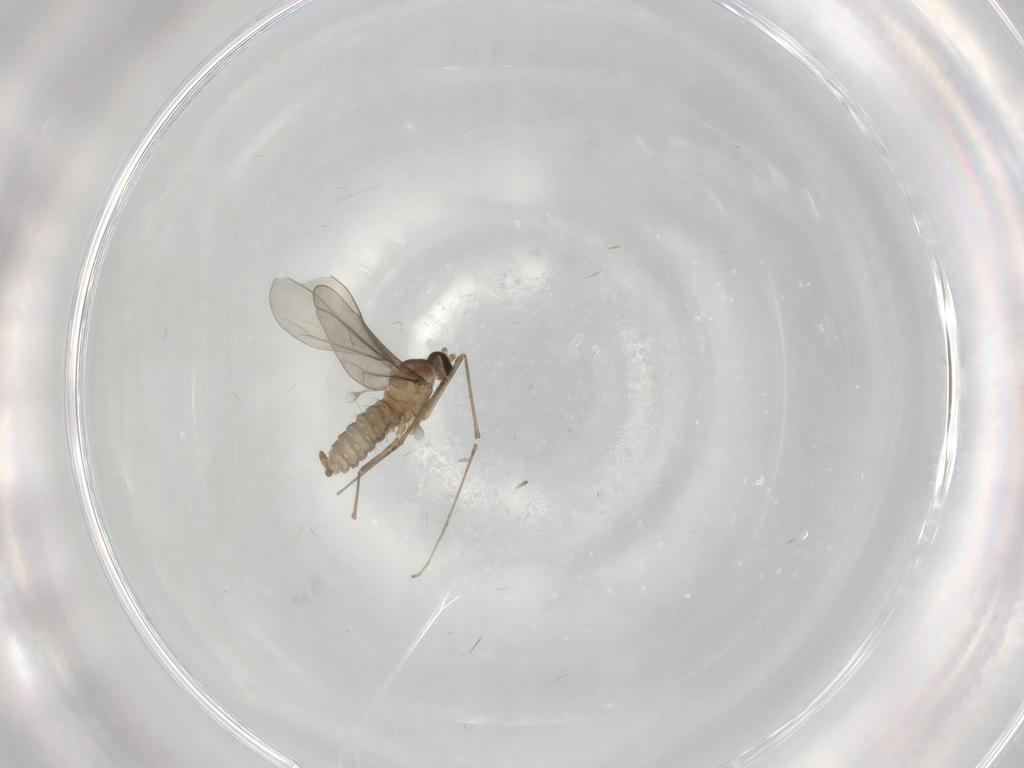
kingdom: Animalia
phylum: Arthropoda
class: Insecta
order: Diptera
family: Cecidomyiidae
